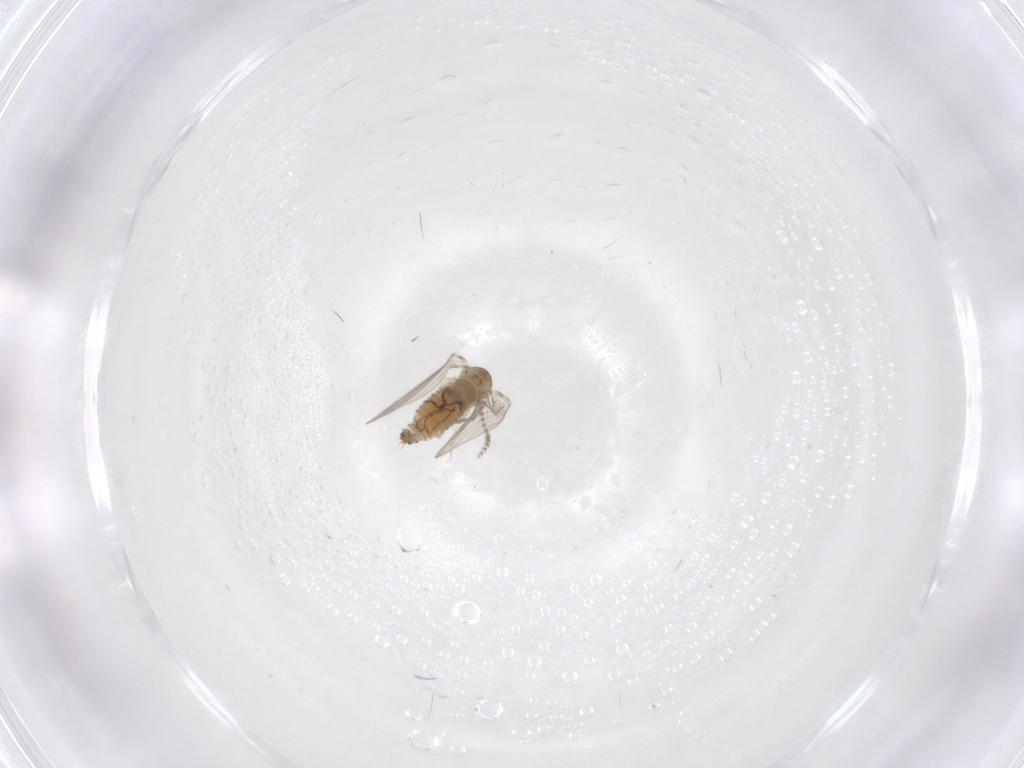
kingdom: Animalia
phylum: Arthropoda
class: Insecta
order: Diptera
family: Psychodidae
